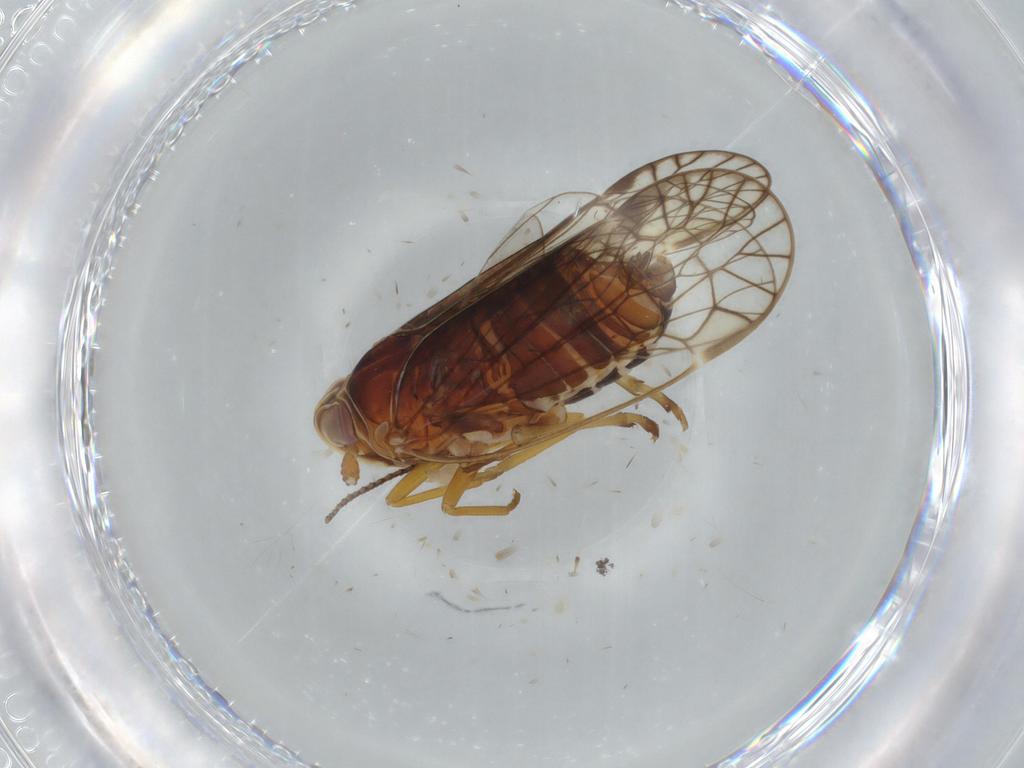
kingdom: Animalia
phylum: Arthropoda
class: Insecta
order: Hemiptera
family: Kinnaridae
